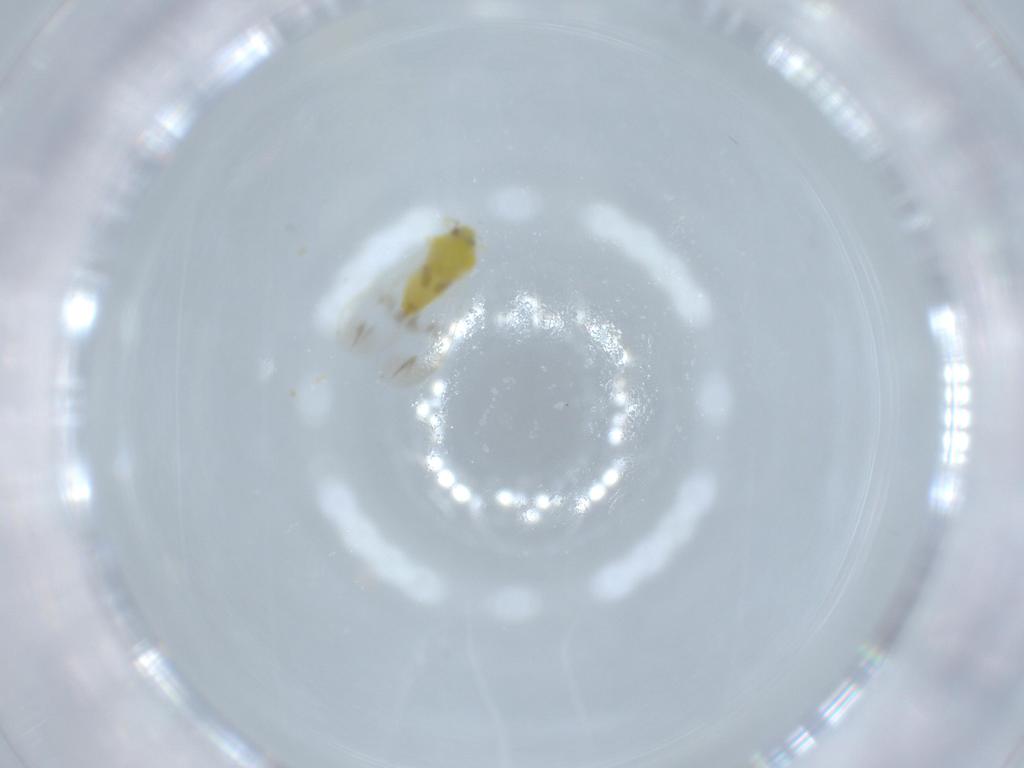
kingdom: Animalia
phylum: Arthropoda
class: Insecta
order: Hemiptera
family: Aleyrodidae
